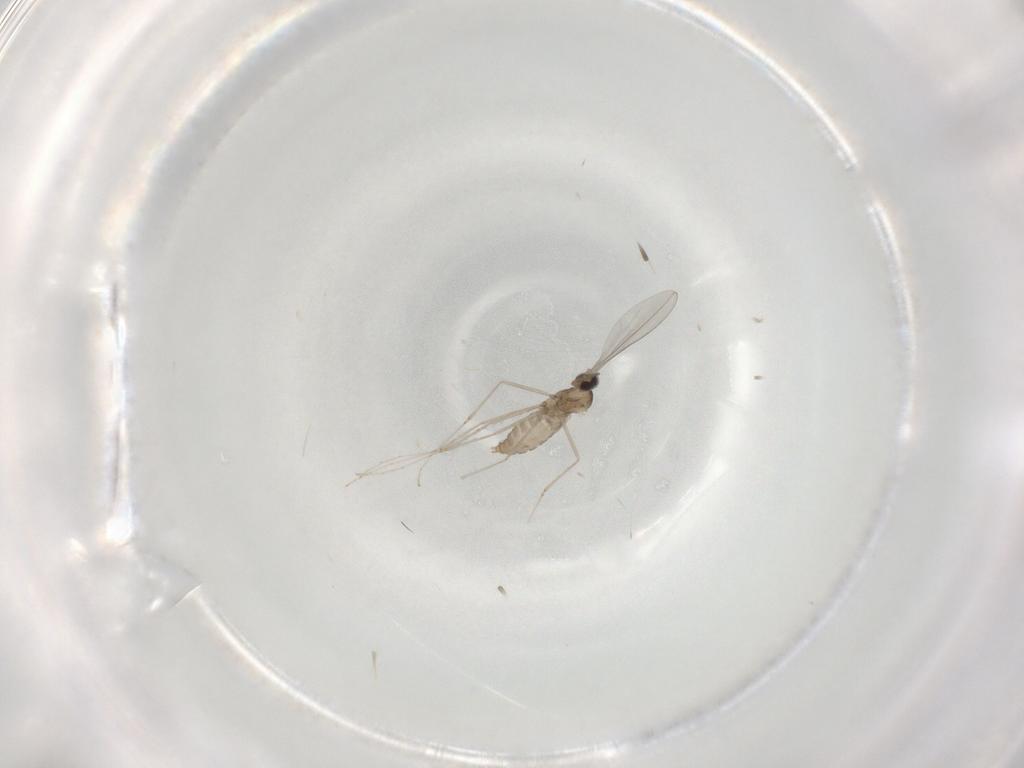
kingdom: Animalia
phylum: Arthropoda
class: Insecta
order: Diptera
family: Cecidomyiidae
